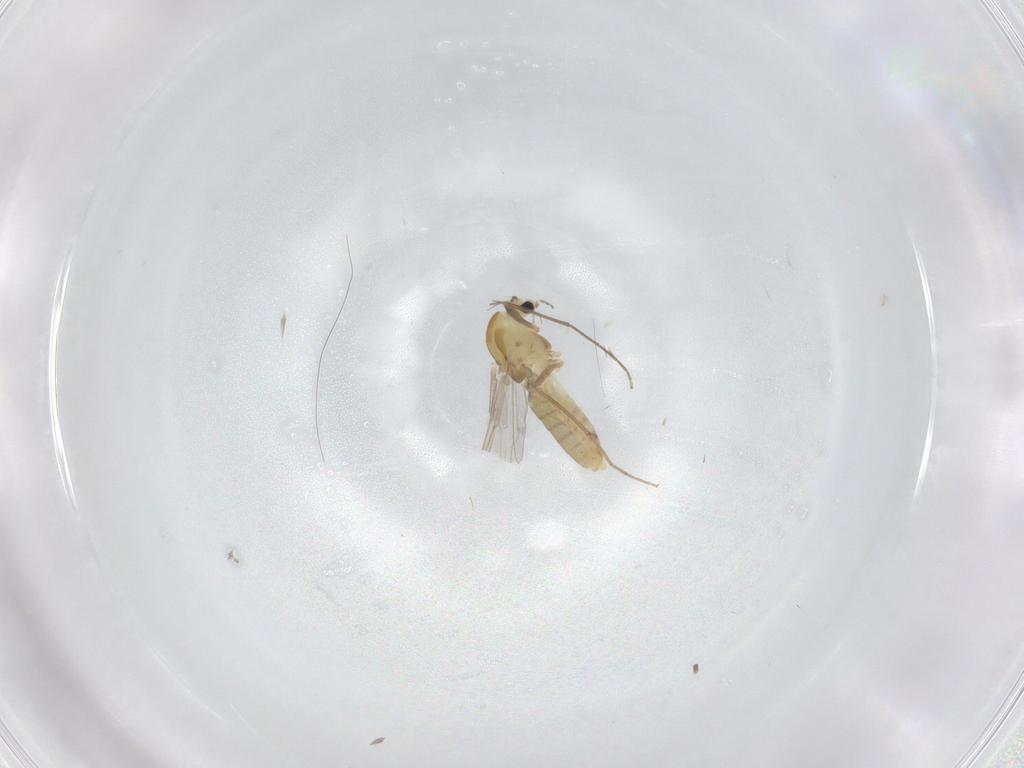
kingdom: Animalia
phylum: Arthropoda
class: Insecta
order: Diptera
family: Chironomidae
